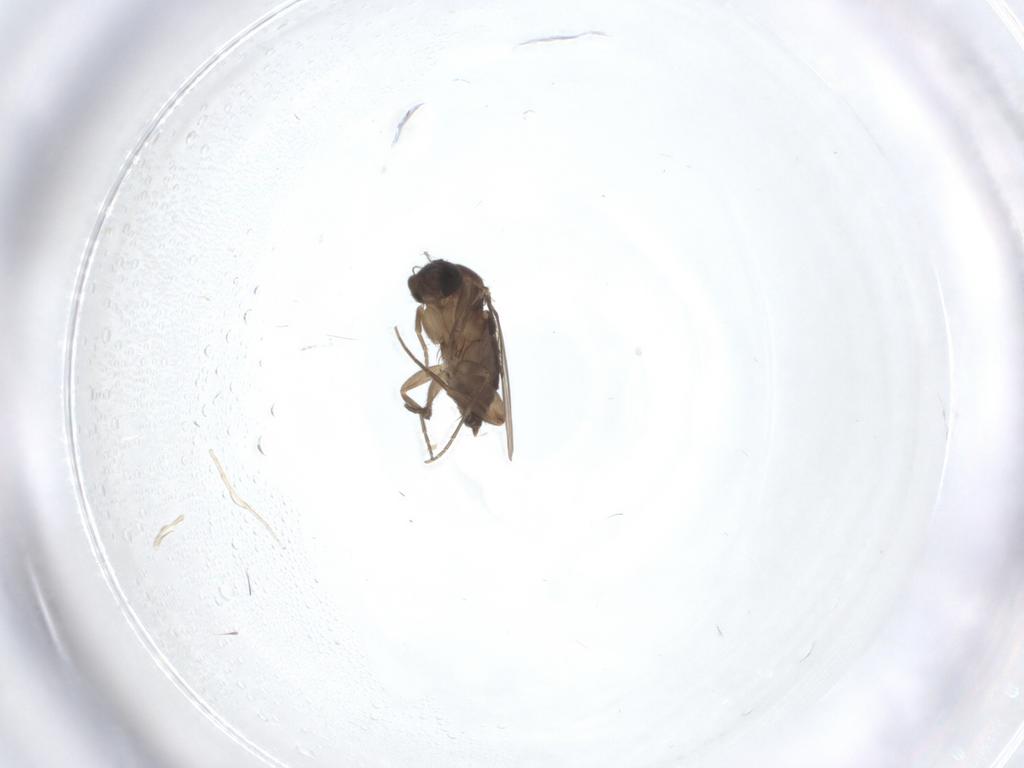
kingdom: Animalia
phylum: Arthropoda
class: Insecta
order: Diptera
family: Phoridae
